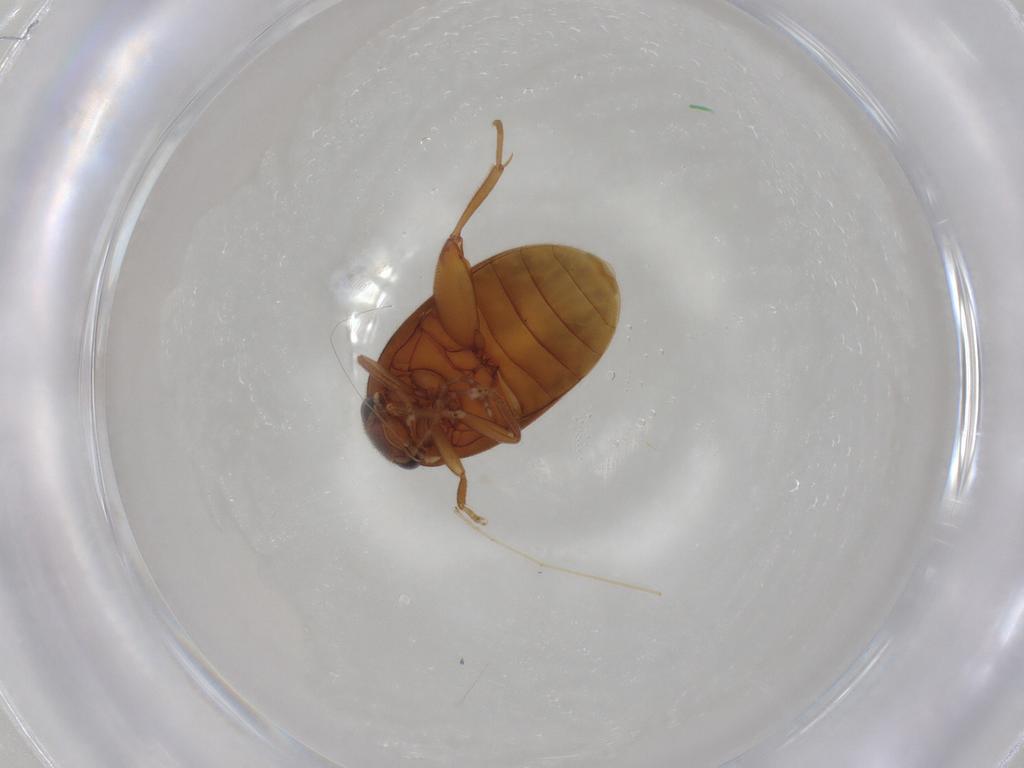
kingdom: Animalia
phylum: Arthropoda
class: Insecta
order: Coleoptera
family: Scirtidae
